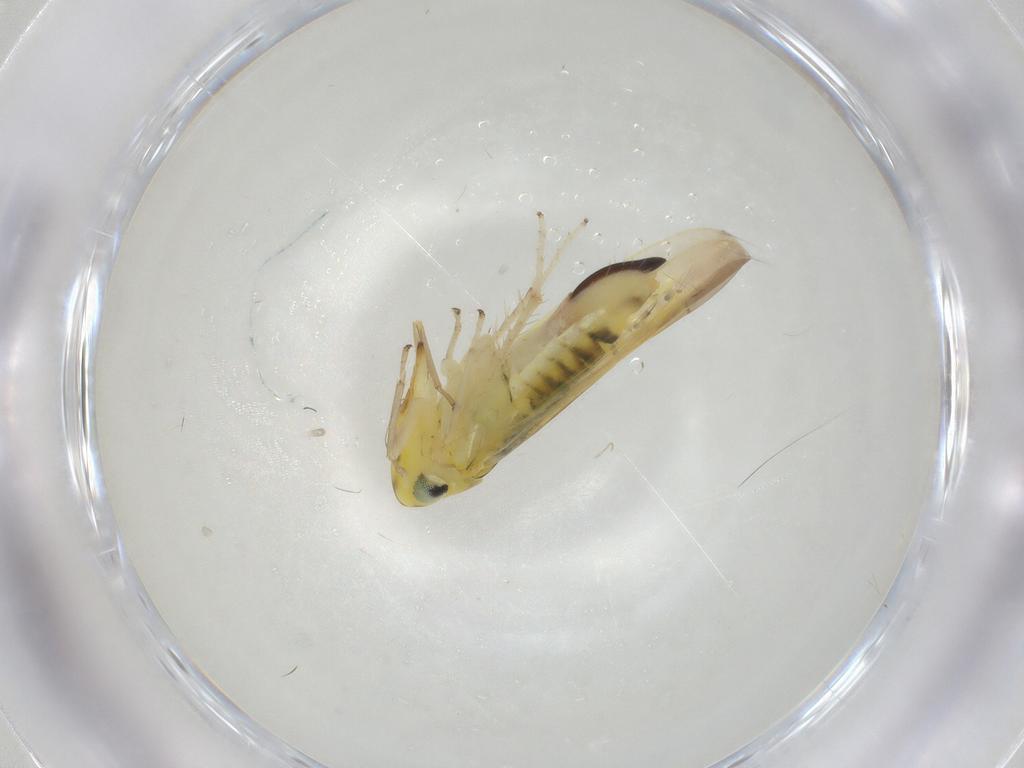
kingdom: Animalia
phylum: Arthropoda
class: Insecta
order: Hemiptera
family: Cicadellidae
